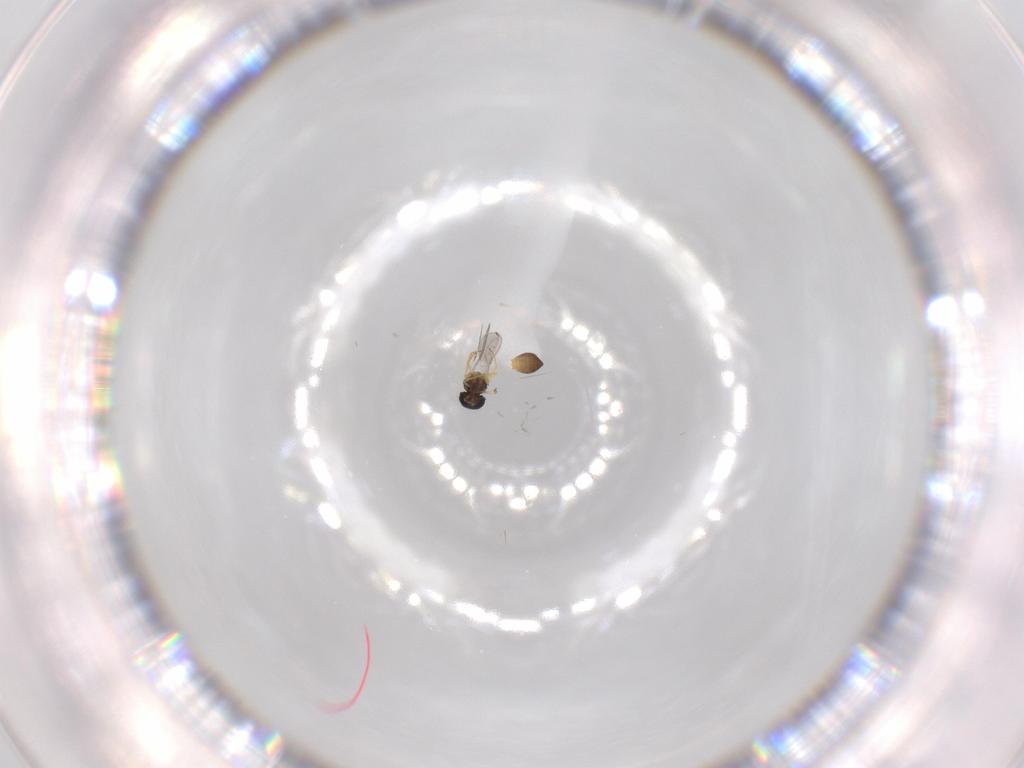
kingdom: Animalia
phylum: Arthropoda
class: Insecta
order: Hymenoptera
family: Scelionidae
